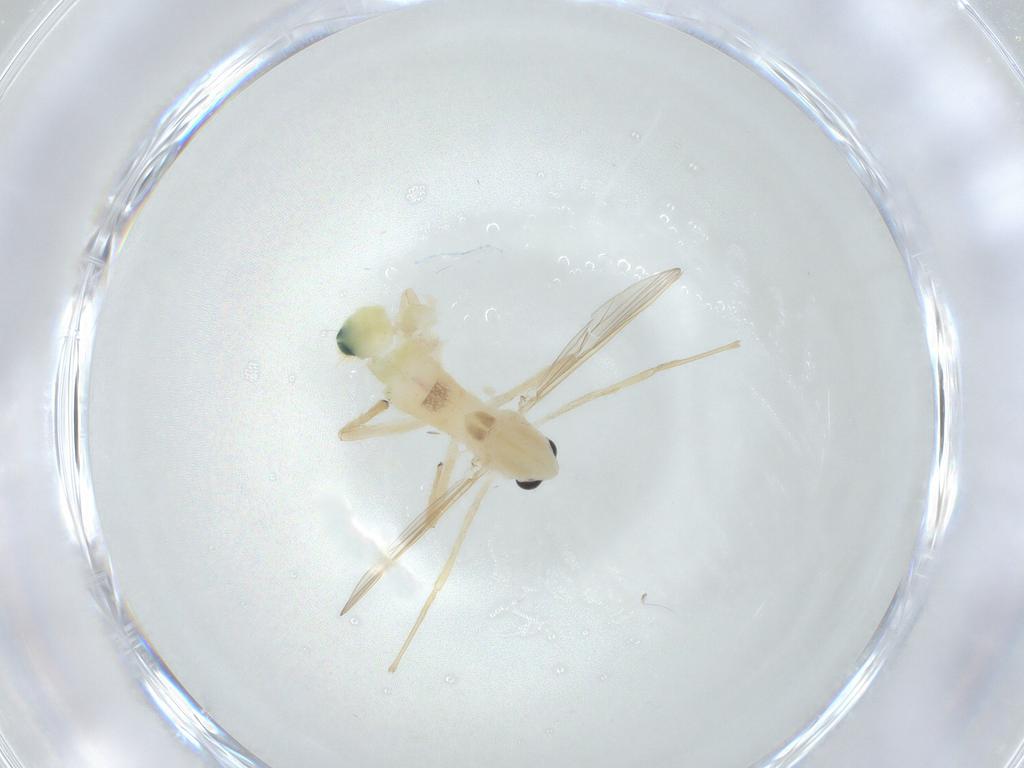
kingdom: Animalia
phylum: Arthropoda
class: Insecta
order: Diptera
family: Chironomidae
